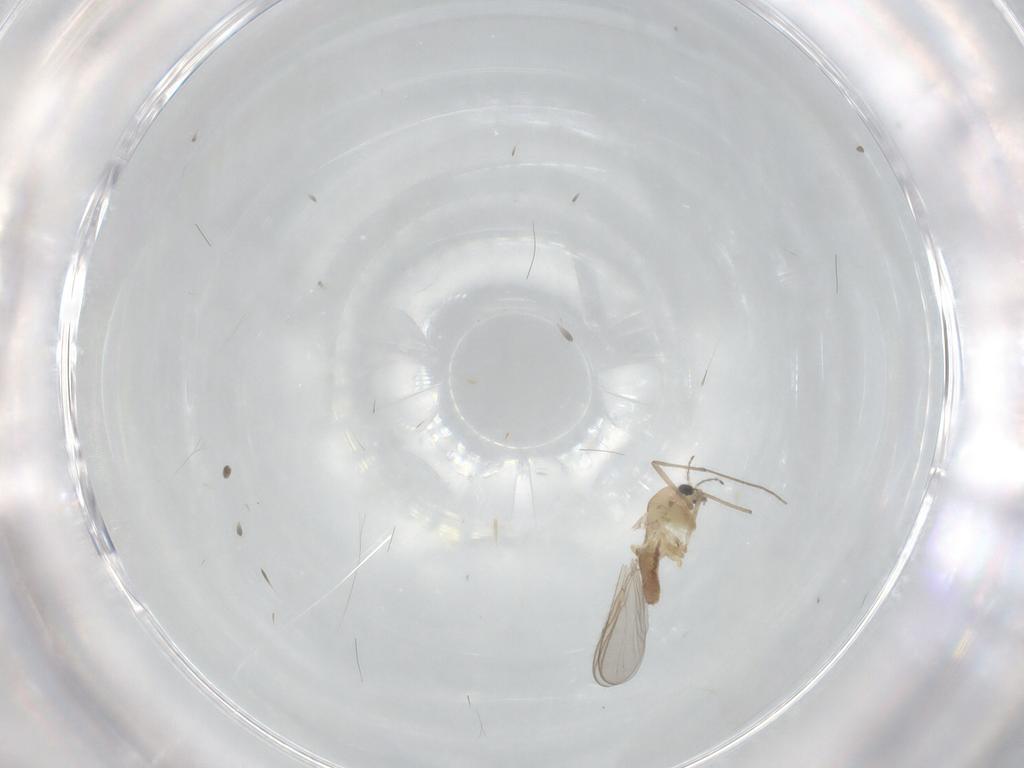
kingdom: Animalia
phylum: Arthropoda
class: Insecta
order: Diptera
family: Chironomidae
